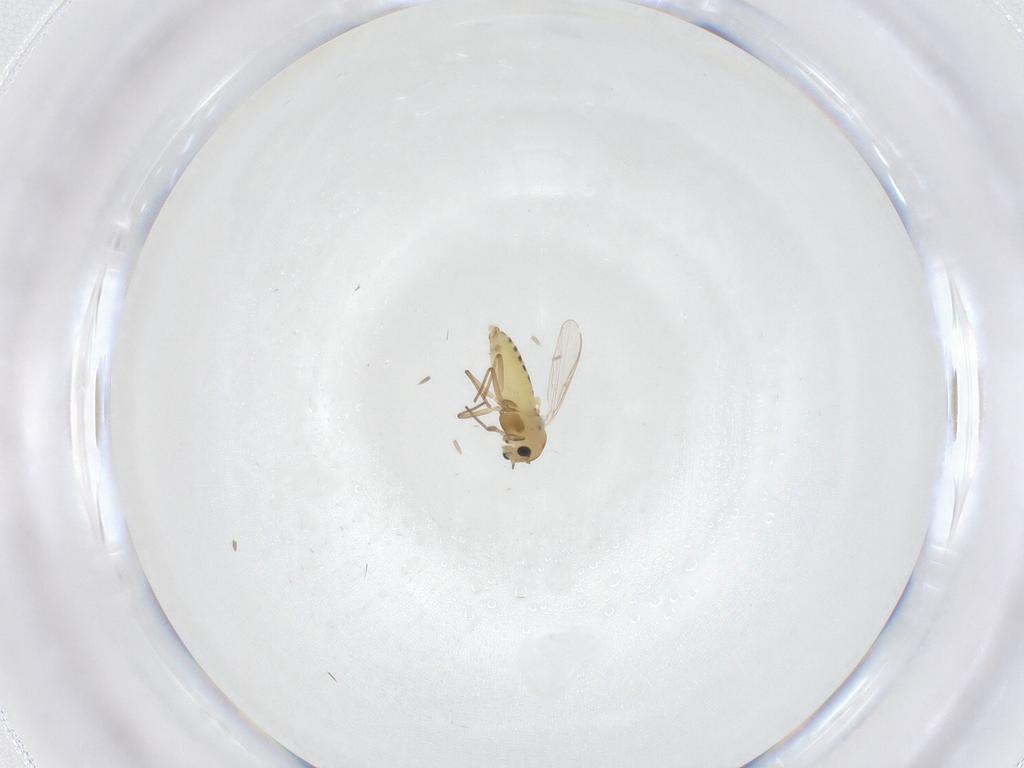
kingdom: Animalia
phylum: Arthropoda
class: Insecta
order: Diptera
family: Chironomidae
